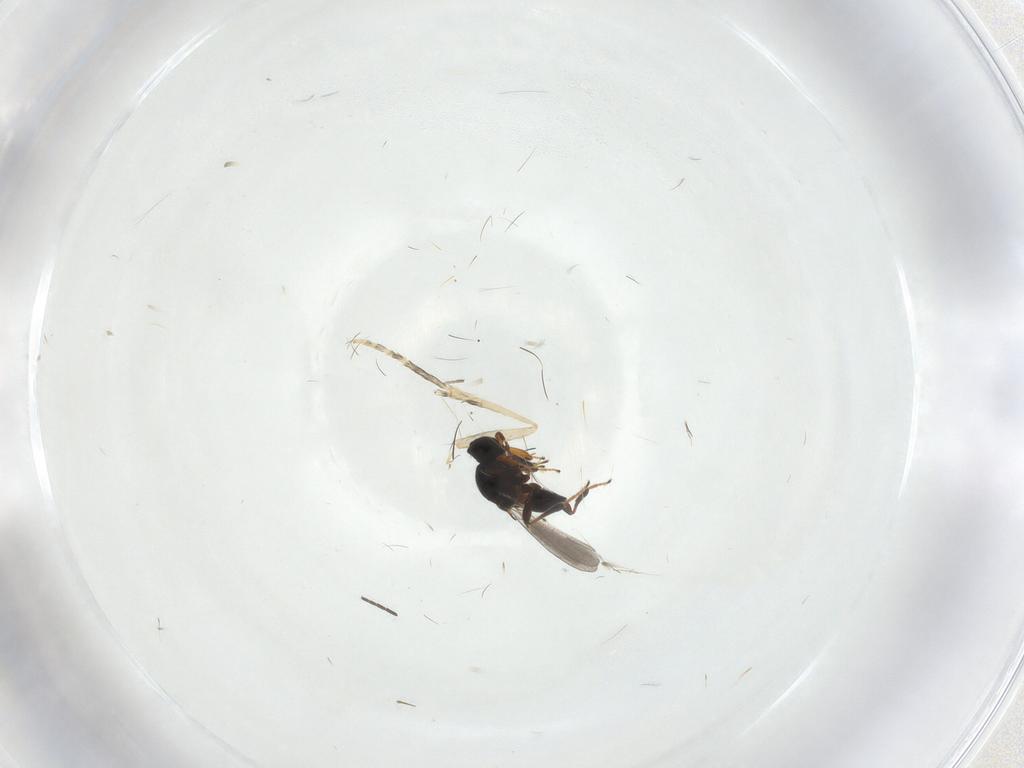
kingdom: Animalia
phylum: Arthropoda
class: Insecta
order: Hymenoptera
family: Platygastridae
